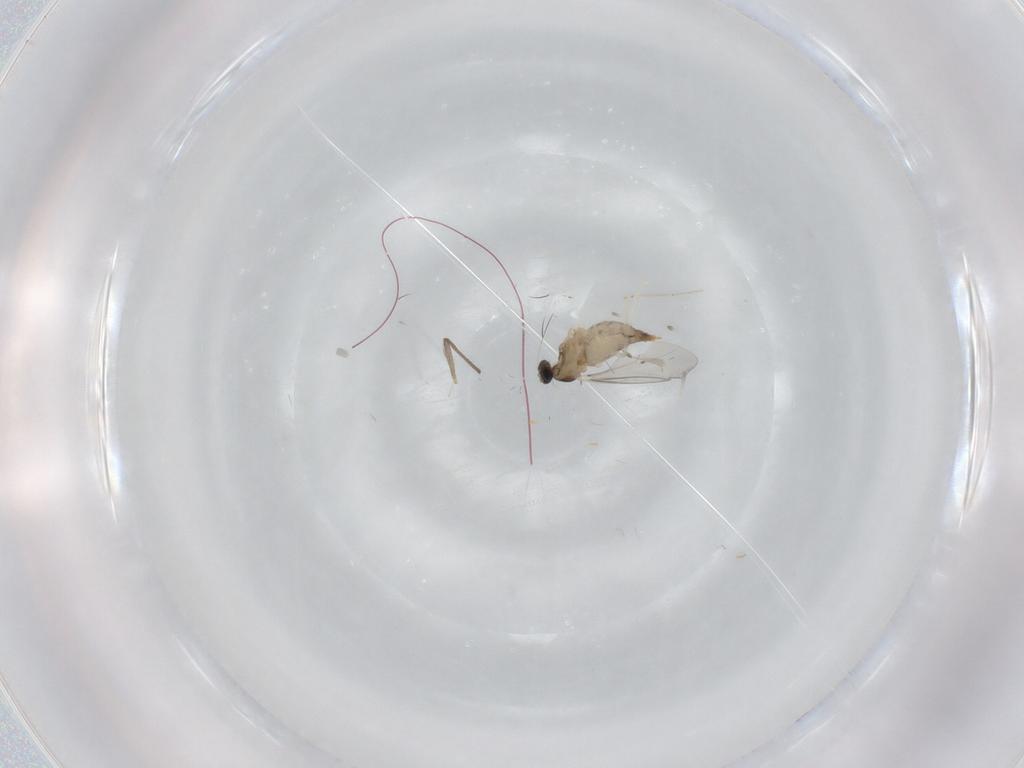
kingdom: Animalia
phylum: Arthropoda
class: Insecta
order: Diptera
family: Cecidomyiidae
